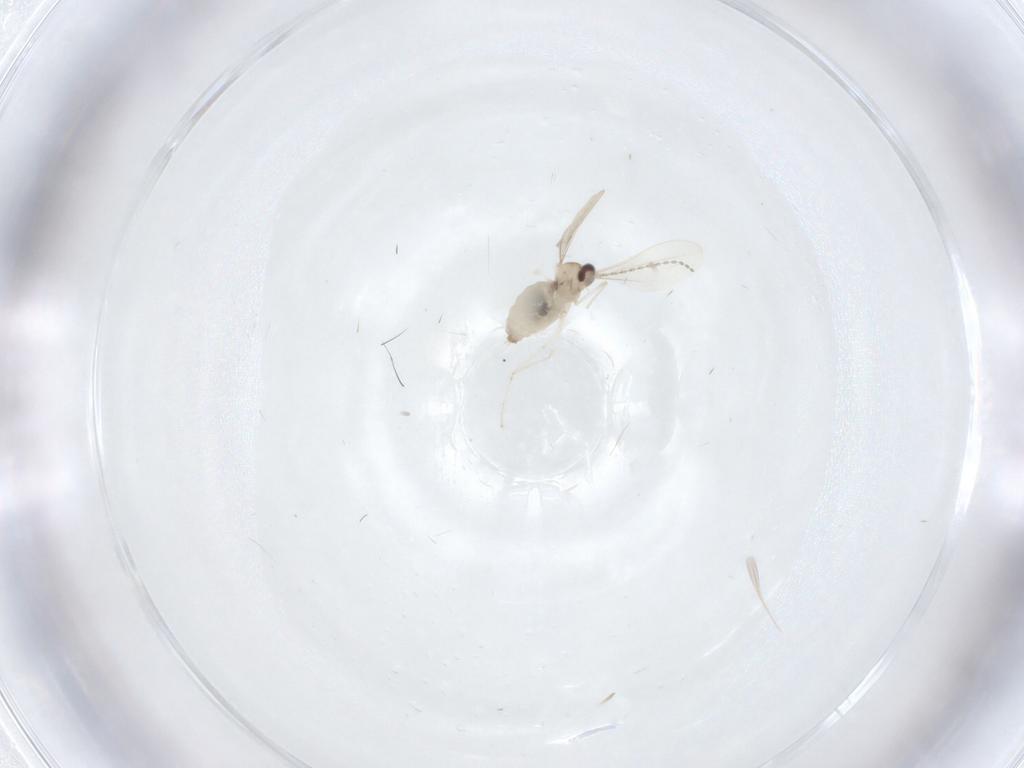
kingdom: Animalia
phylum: Arthropoda
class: Insecta
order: Diptera
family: Cecidomyiidae
